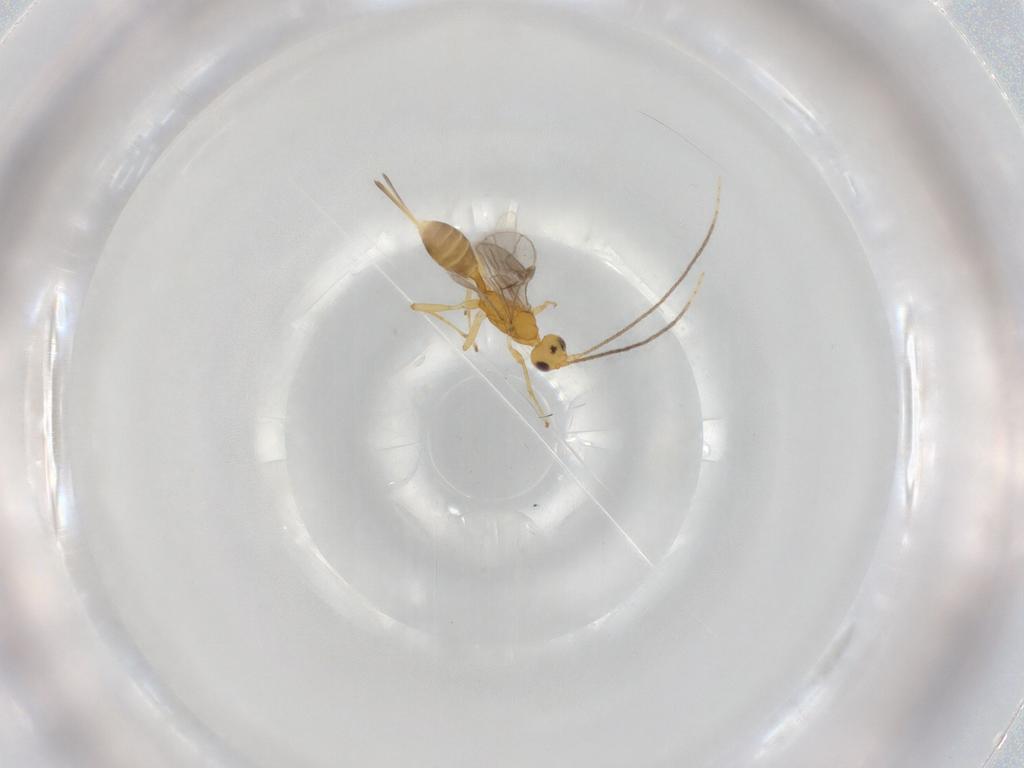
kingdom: Animalia
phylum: Arthropoda
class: Insecta
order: Hymenoptera
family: Braconidae
